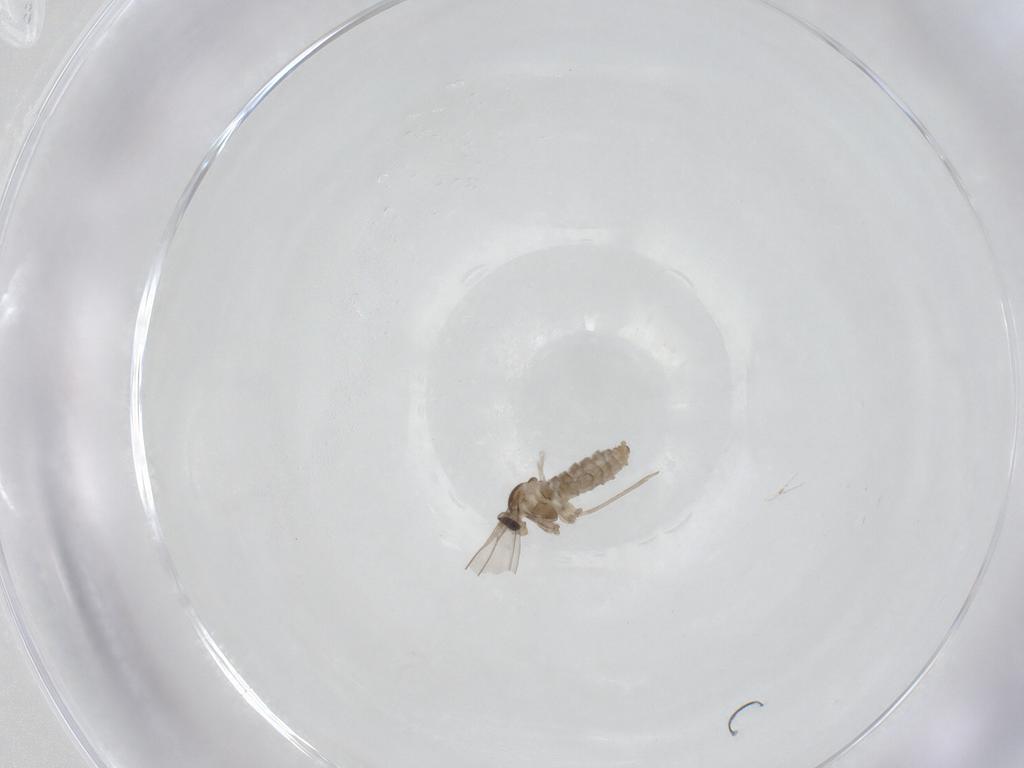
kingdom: Animalia
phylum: Arthropoda
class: Insecta
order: Diptera
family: Cecidomyiidae
